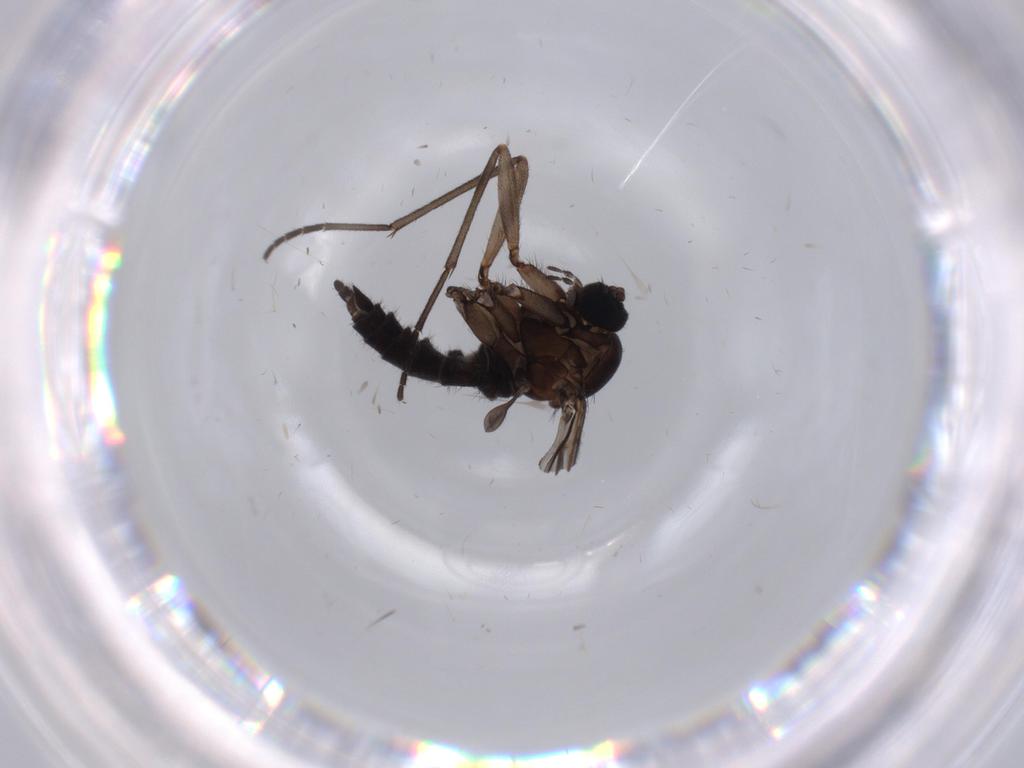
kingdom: Animalia
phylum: Arthropoda
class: Insecta
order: Diptera
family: Sciaridae
